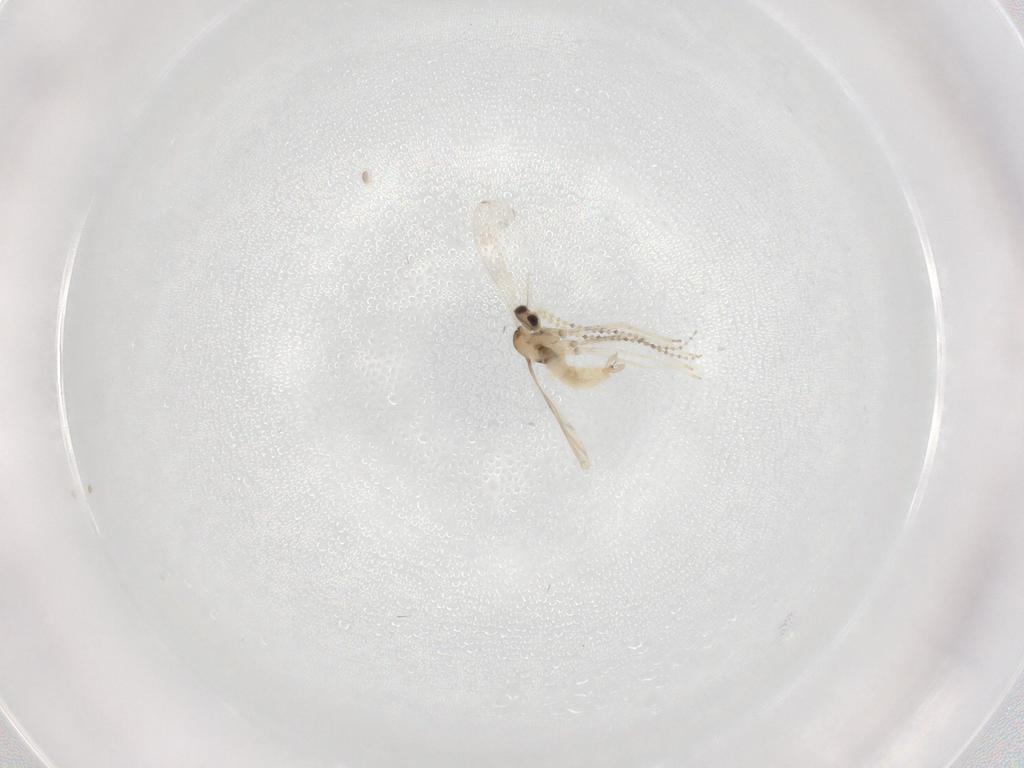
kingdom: Animalia
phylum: Arthropoda
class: Insecta
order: Diptera
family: Cecidomyiidae
